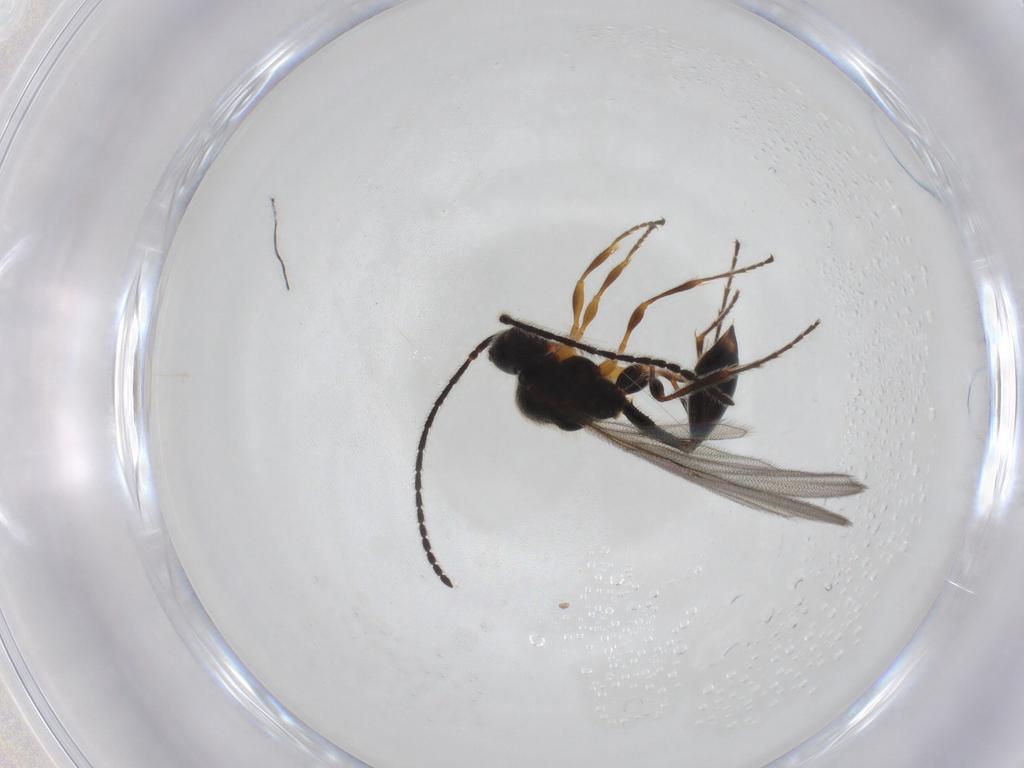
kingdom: Animalia
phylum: Arthropoda
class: Insecta
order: Hymenoptera
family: Diapriidae
